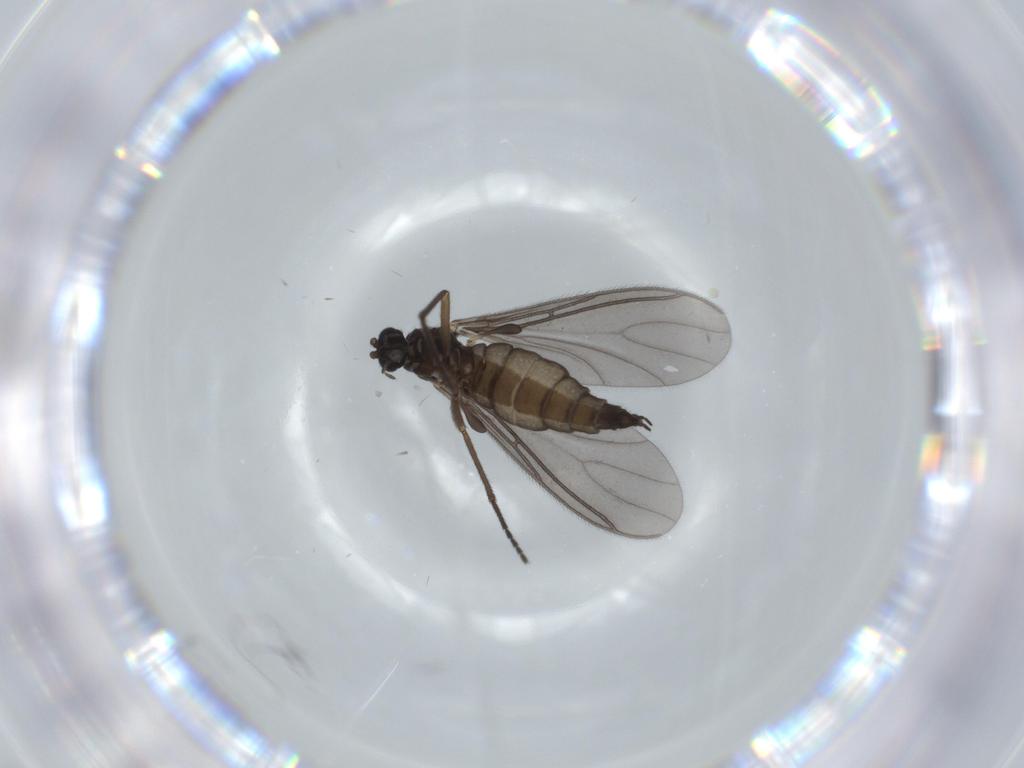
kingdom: Animalia
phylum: Arthropoda
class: Insecta
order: Diptera
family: Sciaridae
